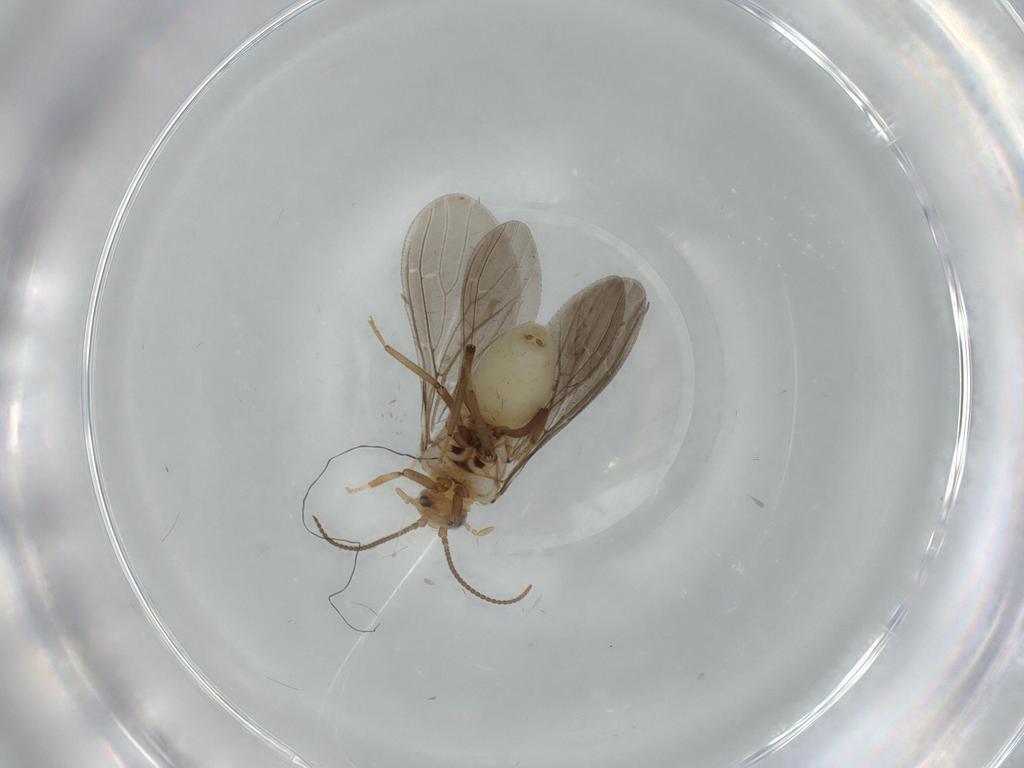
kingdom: Animalia
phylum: Arthropoda
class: Insecta
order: Neuroptera
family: Coniopterygidae
